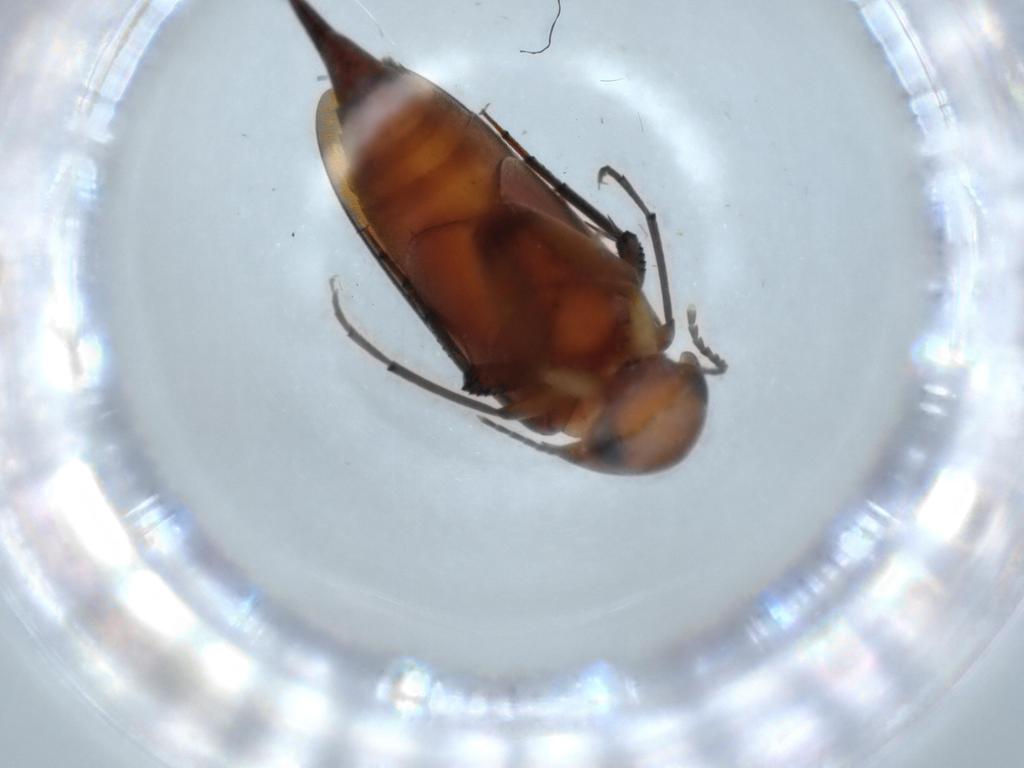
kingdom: Animalia
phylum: Arthropoda
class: Insecta
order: Coleoptera
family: Mordellidae
